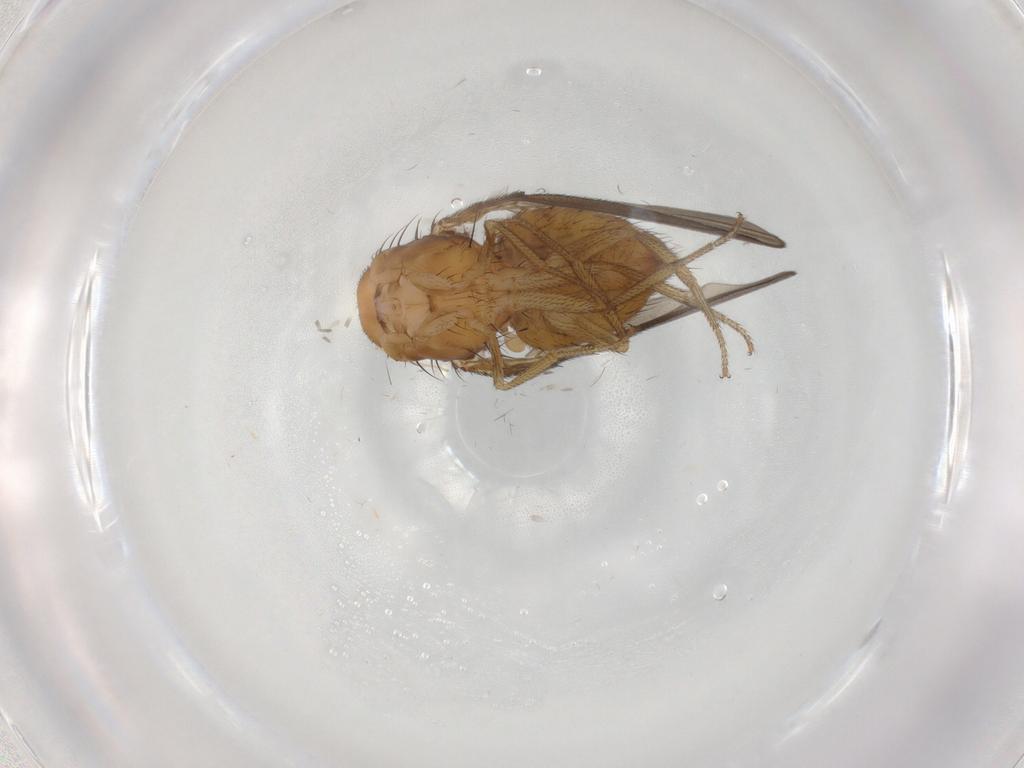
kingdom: Animalia
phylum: Arthropoda
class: Insecta
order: Diptera
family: Drosophilidae
